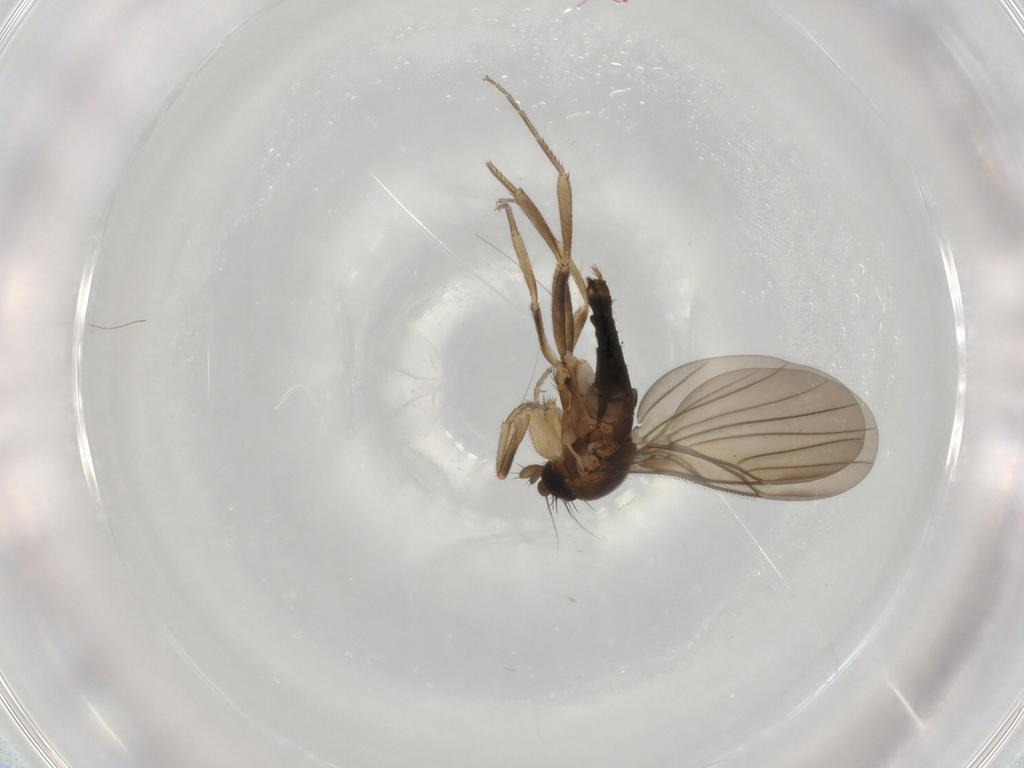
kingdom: Animalia
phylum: Arthropoda
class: Insecta
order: Diptera
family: Phoridae
